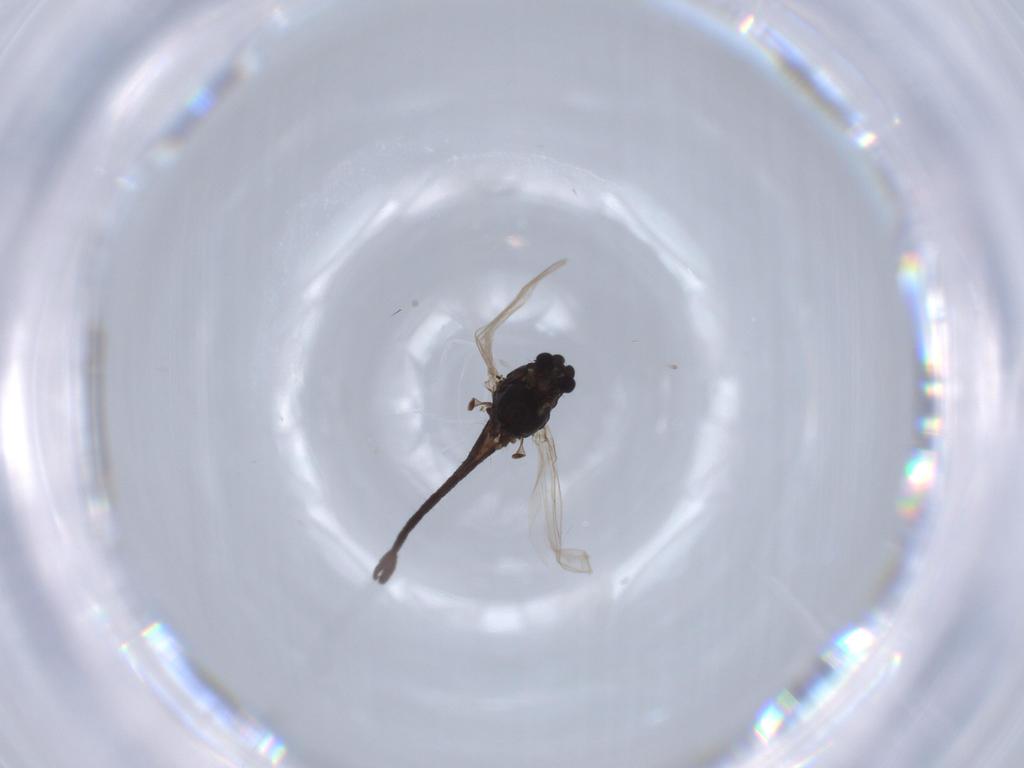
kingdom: Animalia
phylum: Arthropoda
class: Insecta
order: Diptera
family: Chironomidae
